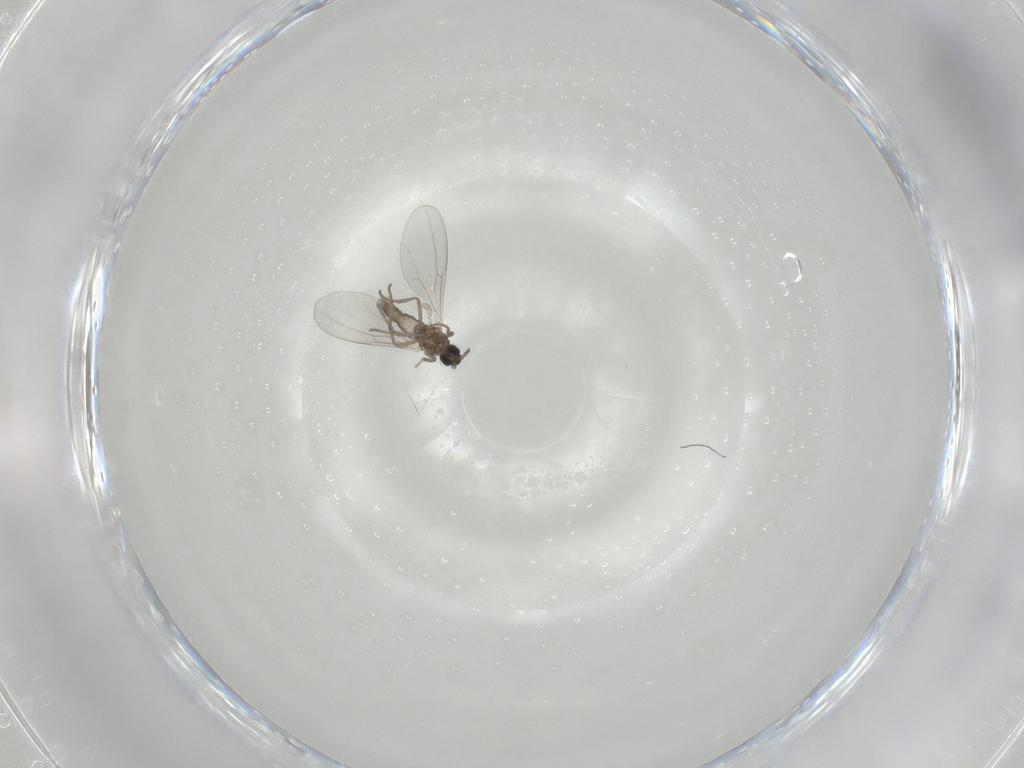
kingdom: Animalia
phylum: Arthropoda
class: Insecta
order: Diptera
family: Cecidomyiidae
